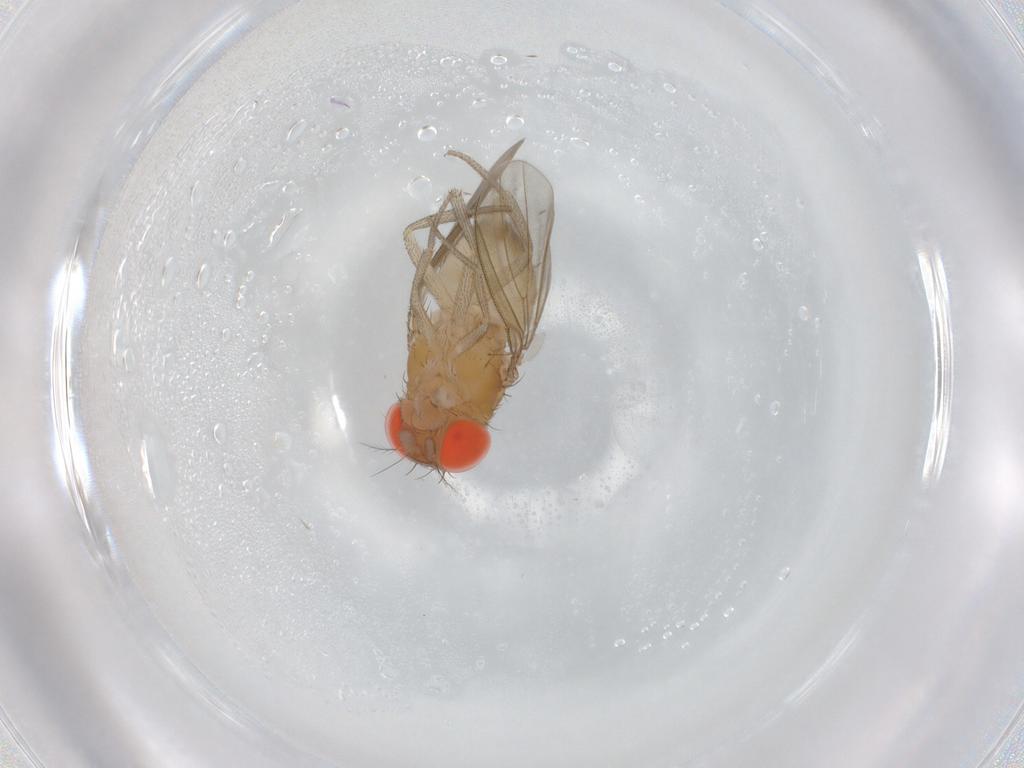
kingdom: Animalia
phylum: Arthropoda
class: Insecta
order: Diptera
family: Drosophilidae
